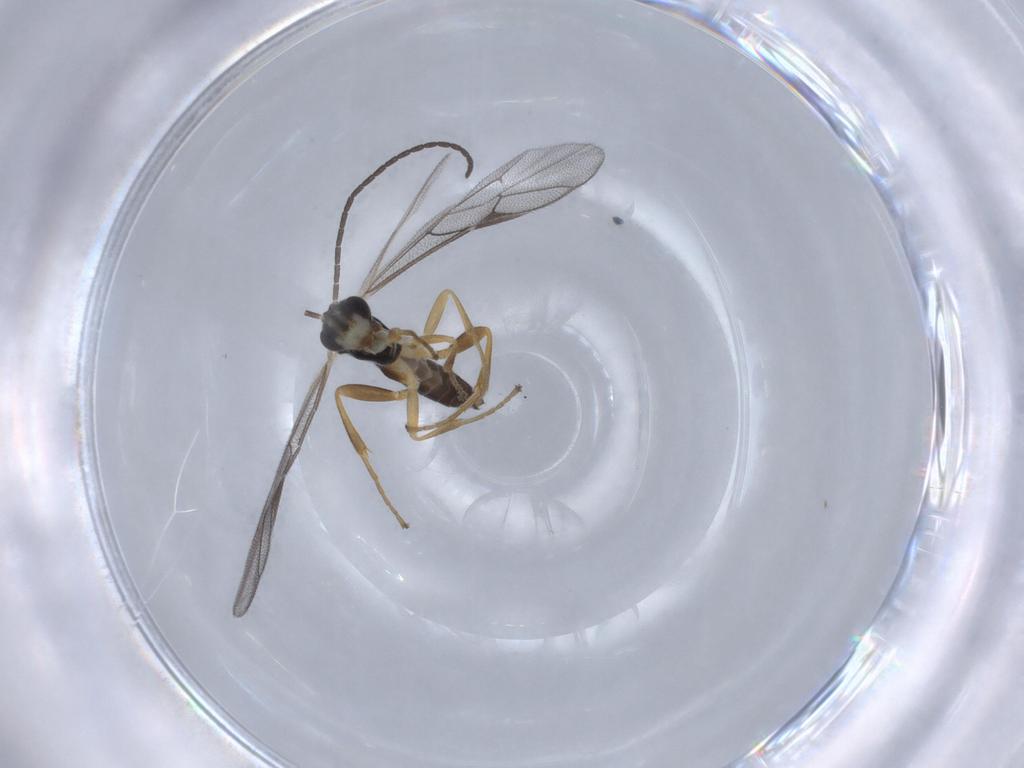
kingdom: Animalia
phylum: Arthropoda
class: Insecta
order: Hymenoptera
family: Ichneumonidae
